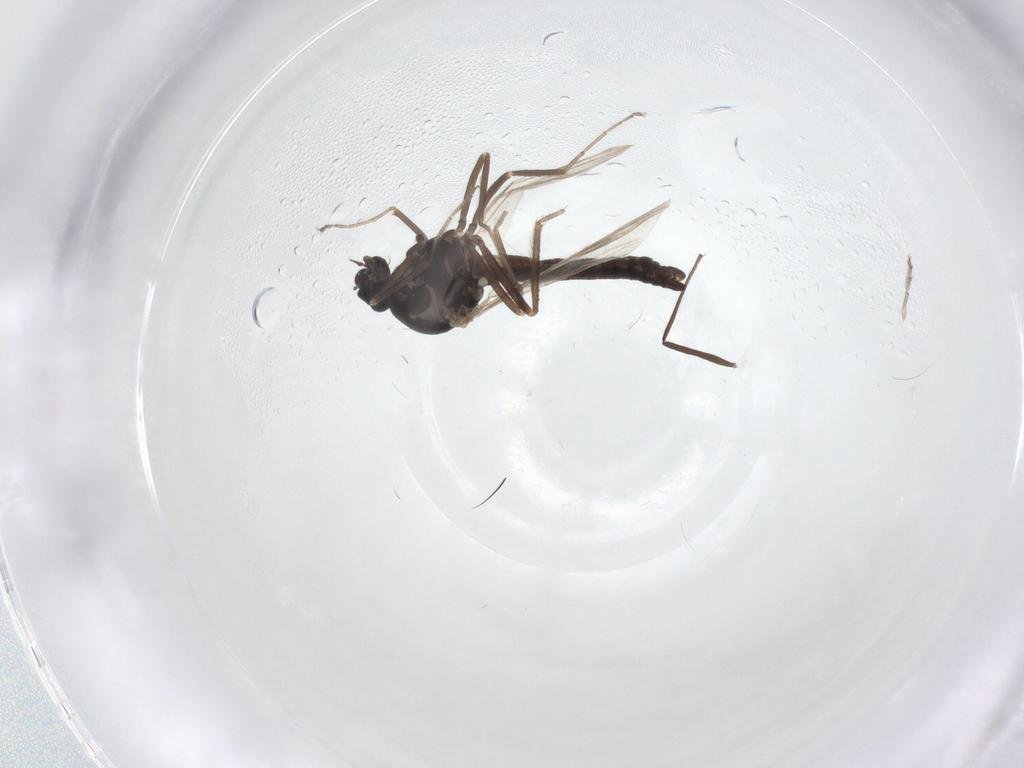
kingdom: Animalia
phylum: Arthropoda
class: Insecta
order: Diptera
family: Ceratopogonidae
